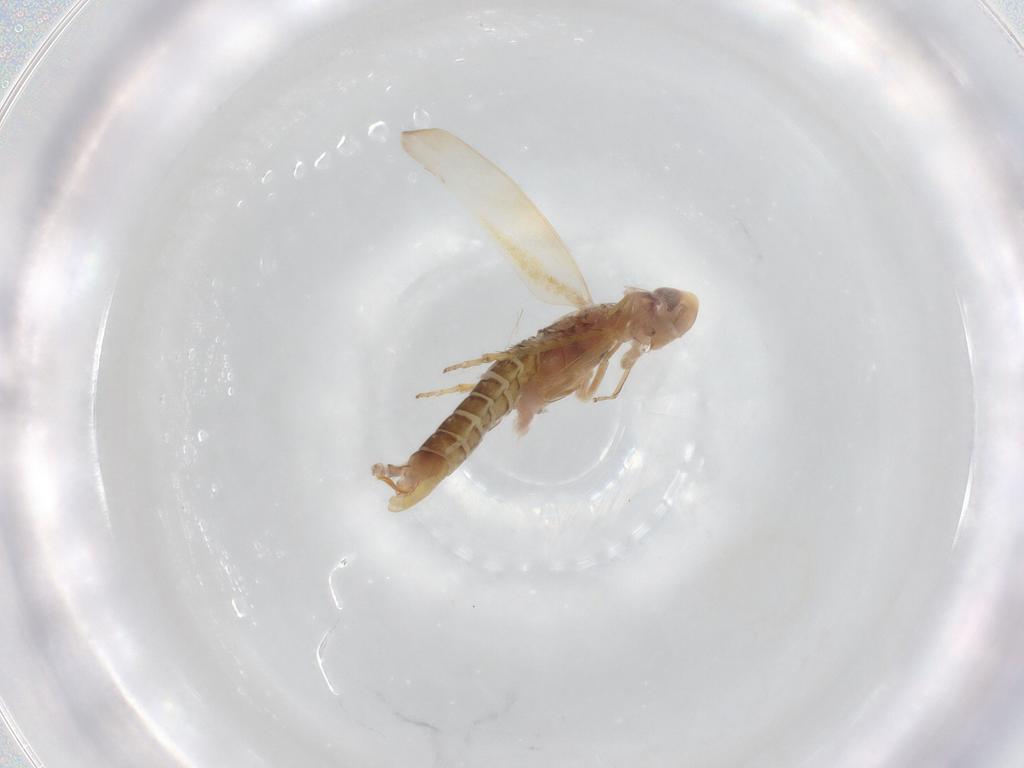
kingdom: Animalia
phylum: Arthropoda
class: Insecta
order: Hemiptera
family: Cicadellidae
